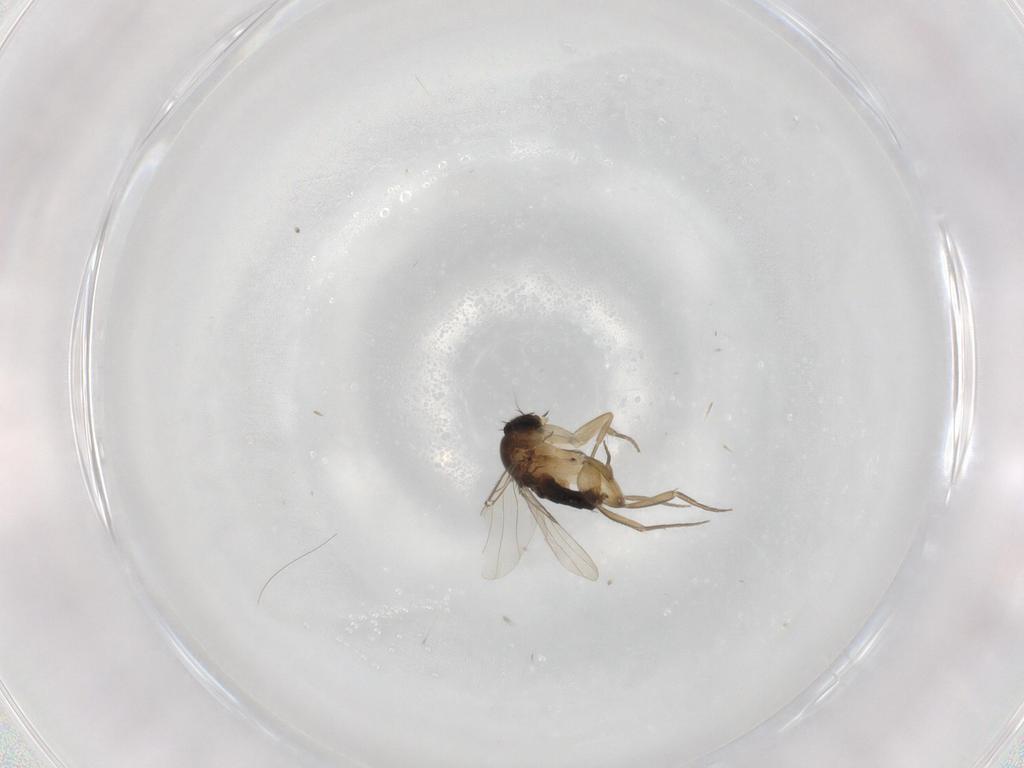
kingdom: Animalia
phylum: Arthropoda
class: Insecta
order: Diptera
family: Phoridae
